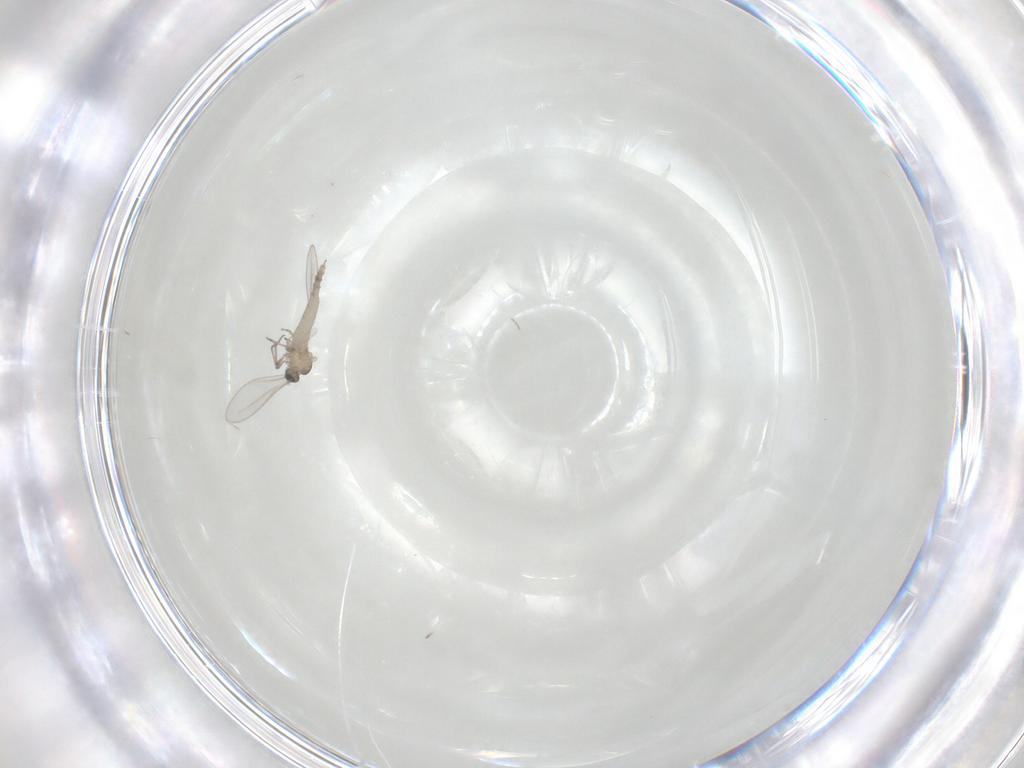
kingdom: Animalia
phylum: Arthropoda
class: Insecta
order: Diptera
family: Cecidomyiidae
